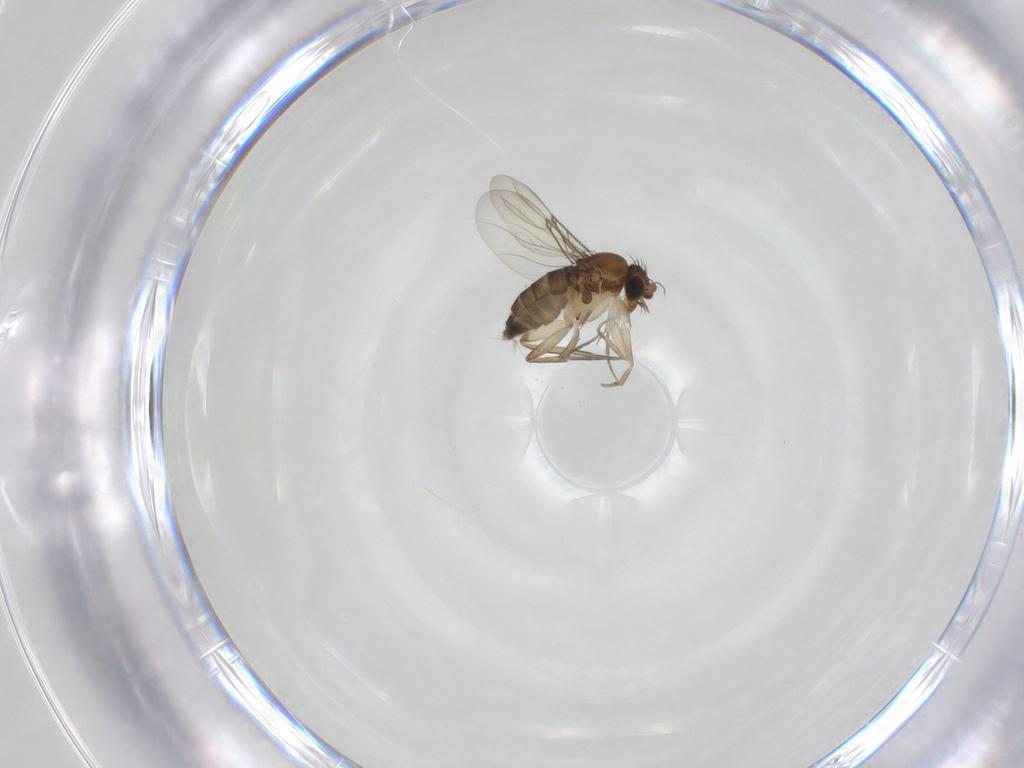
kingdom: Animalia
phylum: Arthropoda
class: Insecta
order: Diptera
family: Phoridae
